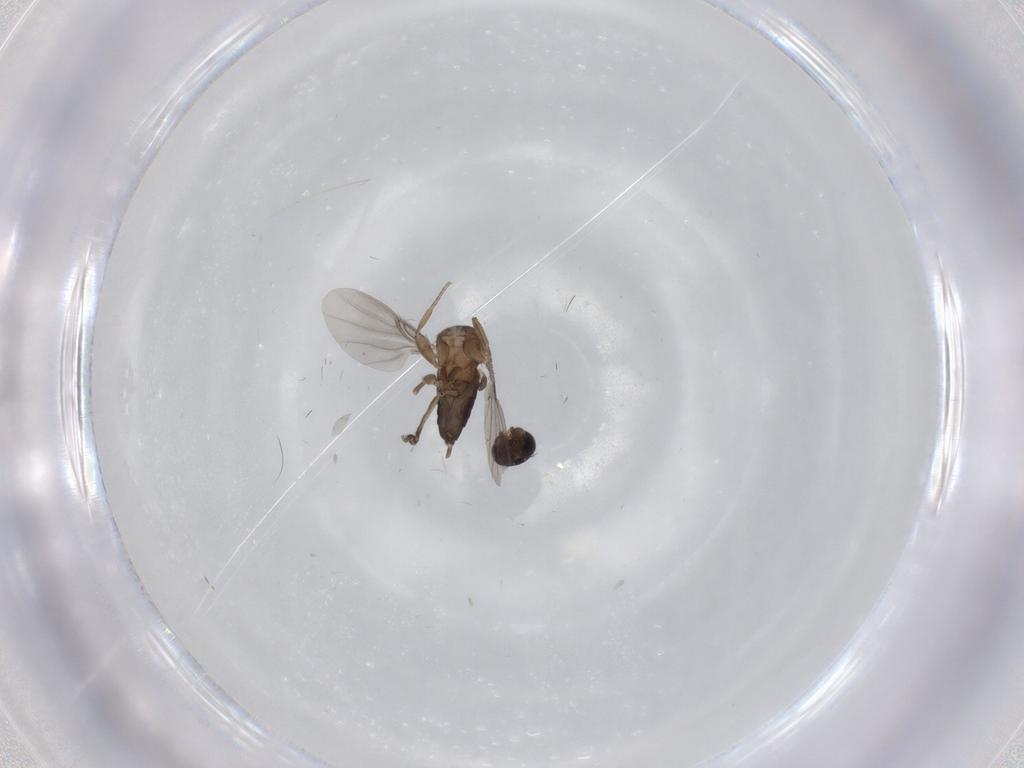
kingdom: Animalia
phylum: Arthropoda
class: Insecta
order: Diptera
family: Phoridae
